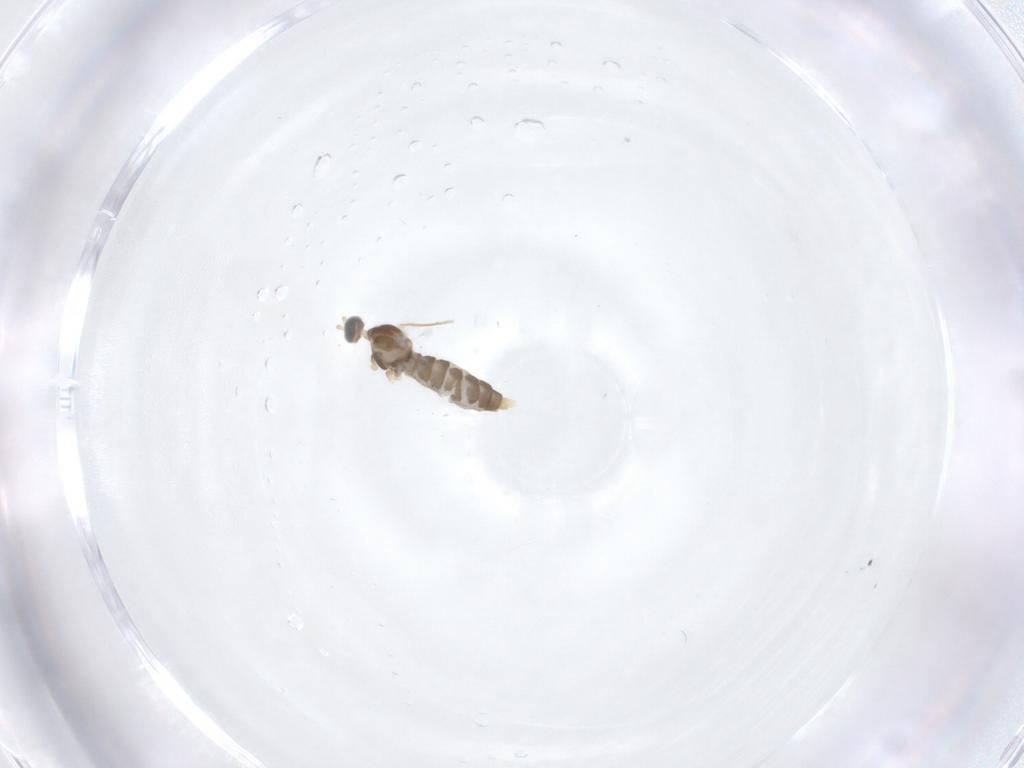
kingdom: Animalia
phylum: Arthropoda
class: Insecta
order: Diptera
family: Cecidomyiidae
